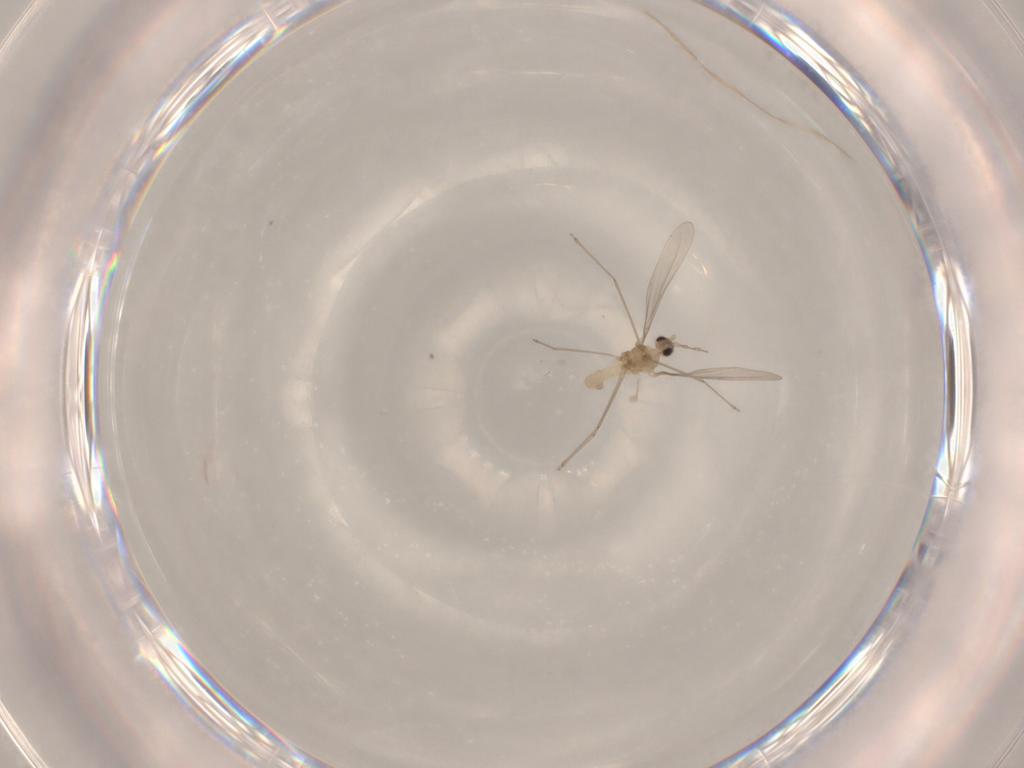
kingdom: Animalia
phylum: Arthropoda
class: Insecta
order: Diptera
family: Cecidomyiidae
